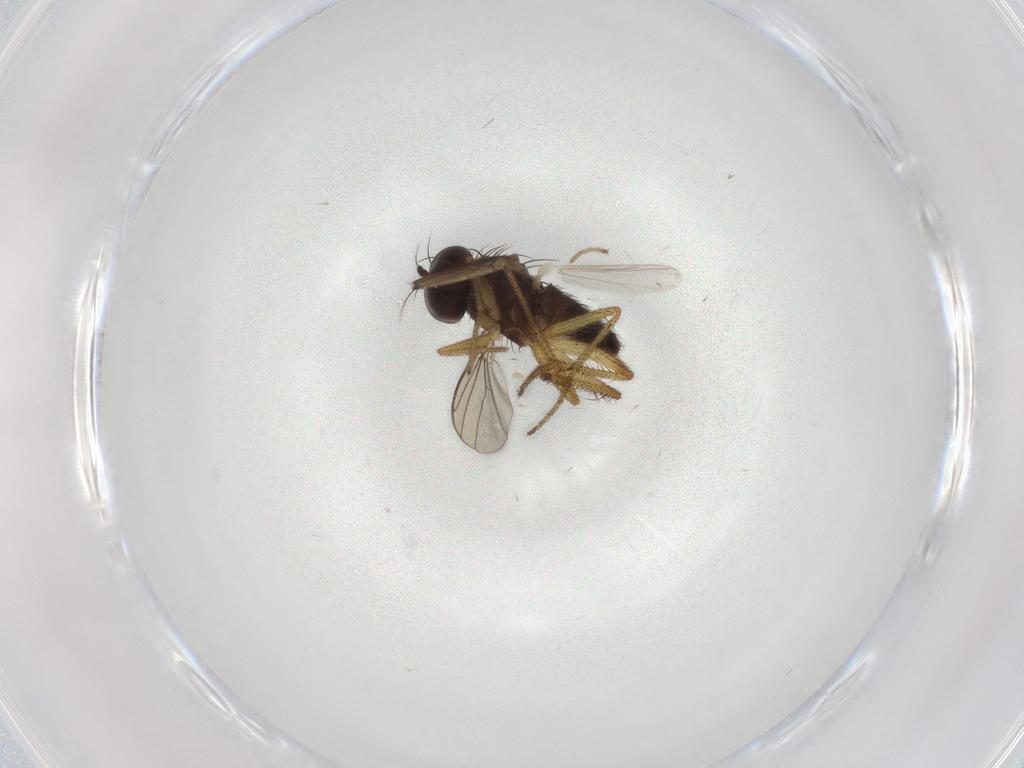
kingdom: Animalia
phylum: Arthropoda
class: Insecta
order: Diptera
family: Dolichopodidae
